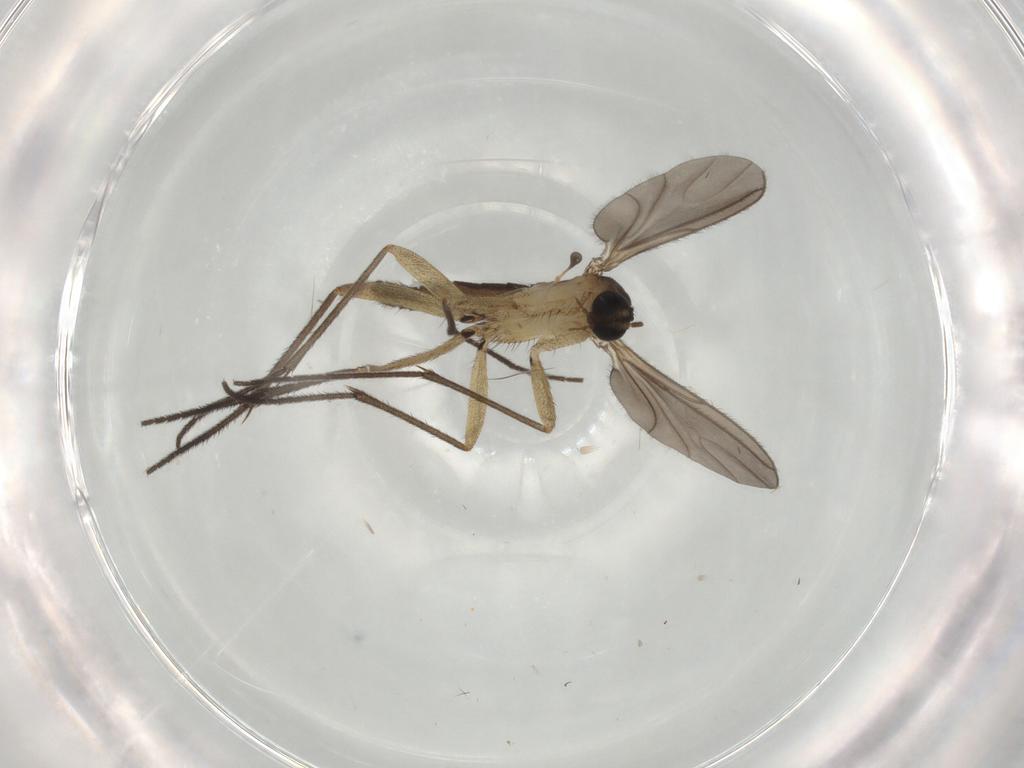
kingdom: Animalia
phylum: Arthropoda
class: Insecta
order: Diptera
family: Sciaridae
